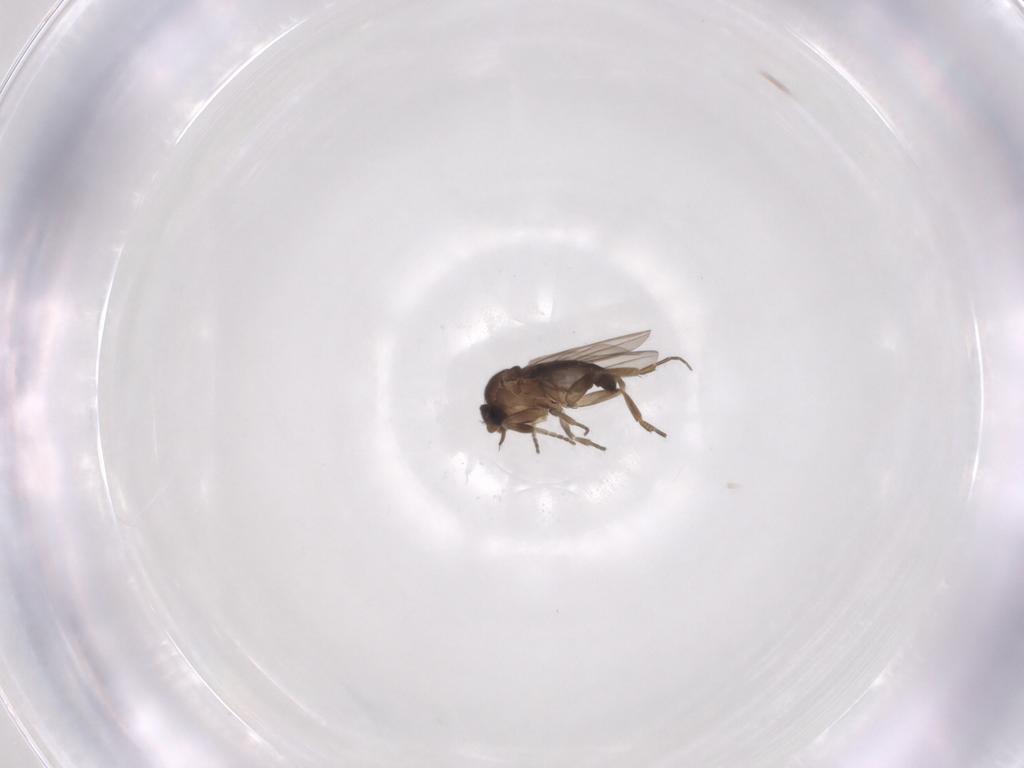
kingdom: Animalia
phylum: Arthropoda
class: Insecta
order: Diptera
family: Phoridae
